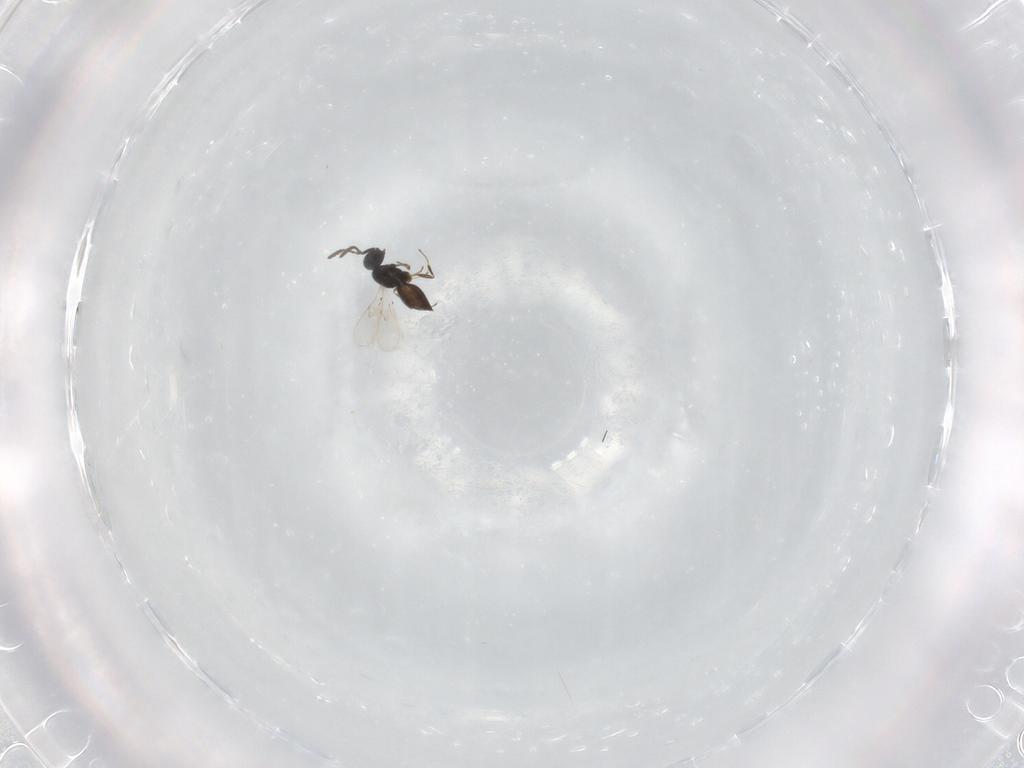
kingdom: Animalia
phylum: Arthropoda
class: Insecta
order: Hymenoptera
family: Scelionidae
